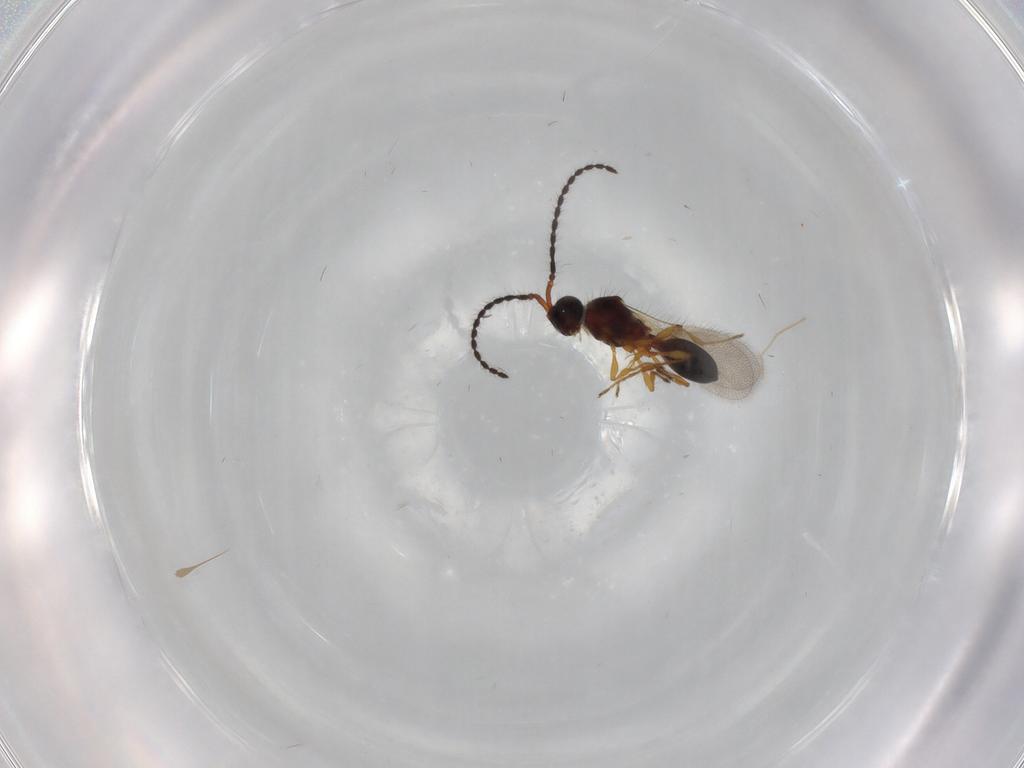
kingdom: Animalia
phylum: Arthropoda
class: Insecta
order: Hymenoptera
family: Diapriidae
